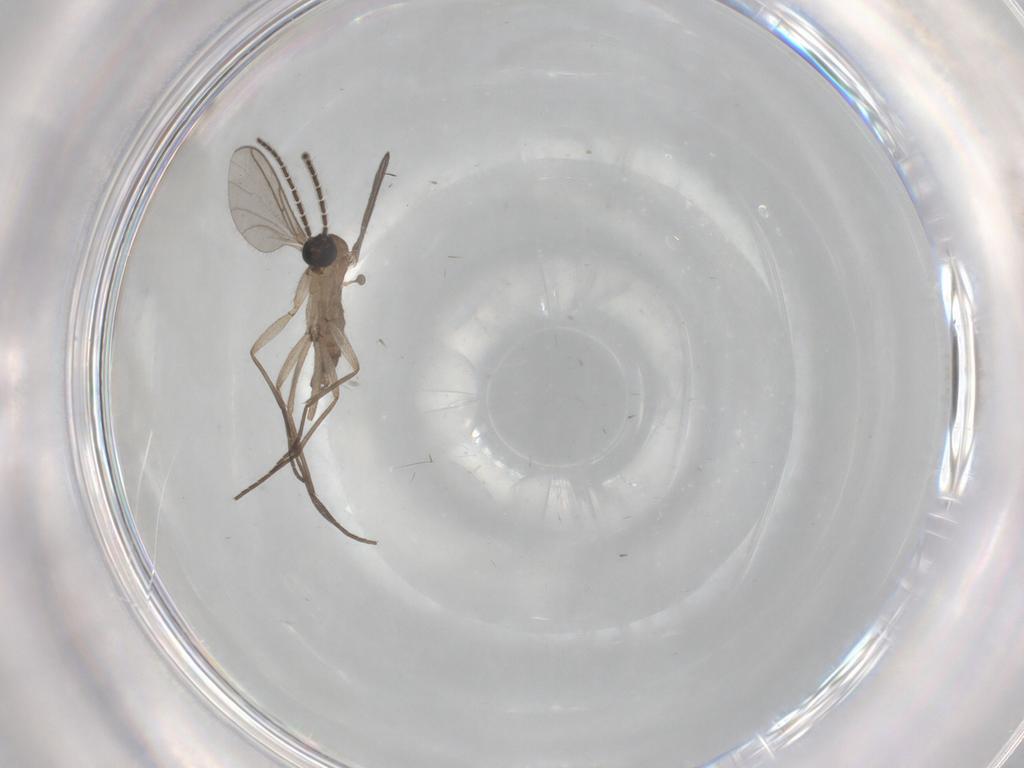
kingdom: Animalia
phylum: Arthropoda
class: Insecta
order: Diptera
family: Sciaridae
